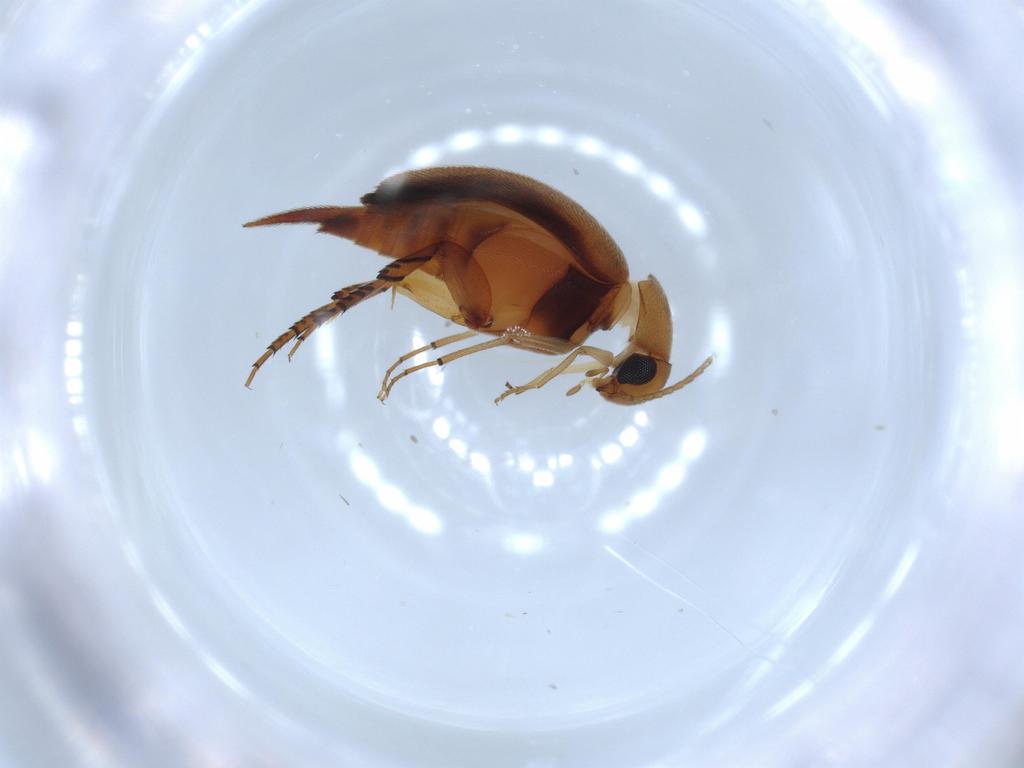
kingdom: Animalia
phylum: Arthropoda
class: Insecta
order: Coleoptera
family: Mordellidae
